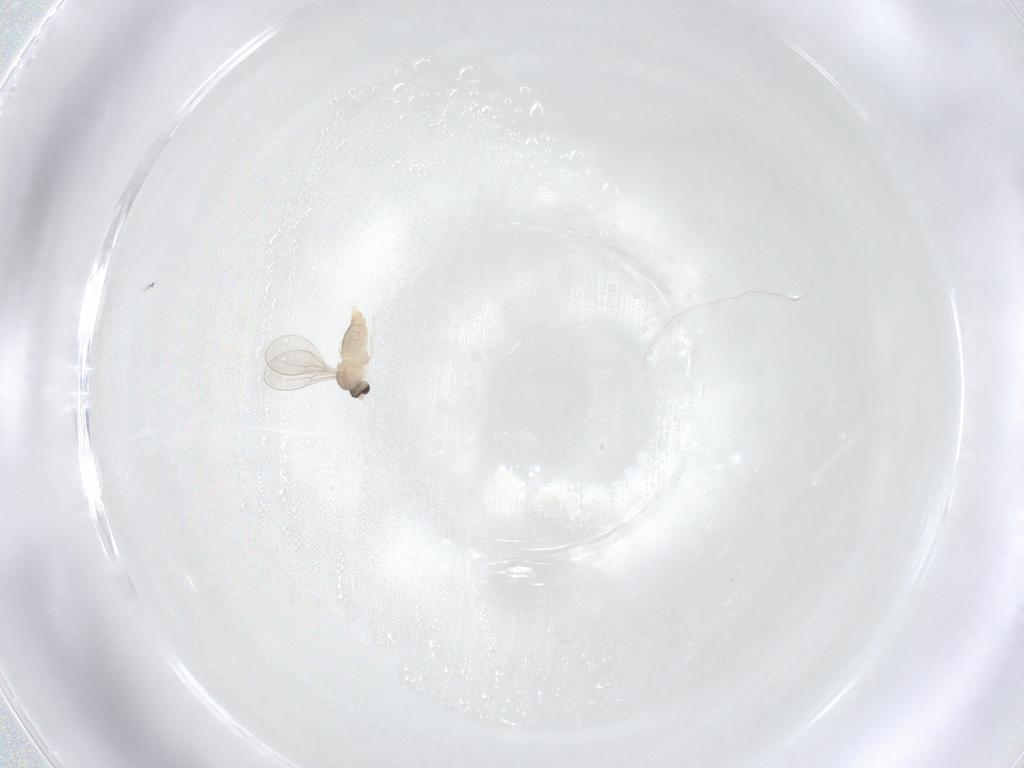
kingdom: Animalia
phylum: Arthropoda
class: Insecta
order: Diptera
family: Cecidomyiidae
